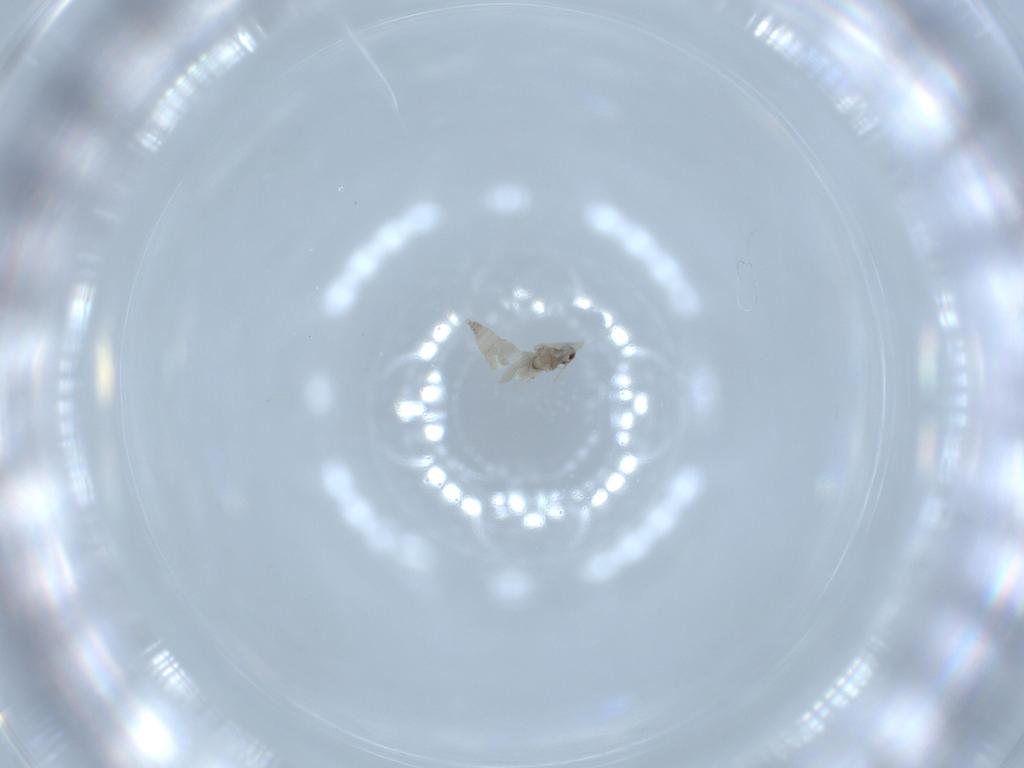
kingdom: Animalia
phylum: Arthropoda
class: Insecta
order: Diptera
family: Cecidomyiidae
